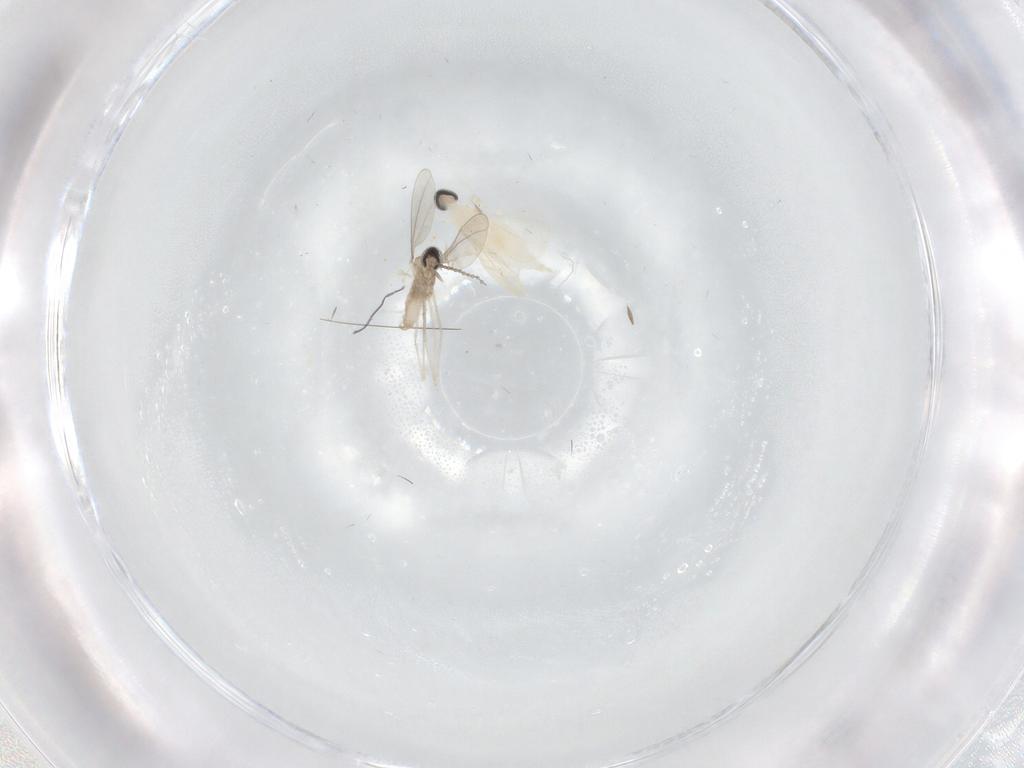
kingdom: Animalia
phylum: Arthropoda
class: Insecta
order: Diptera
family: Cecidomyiidae
